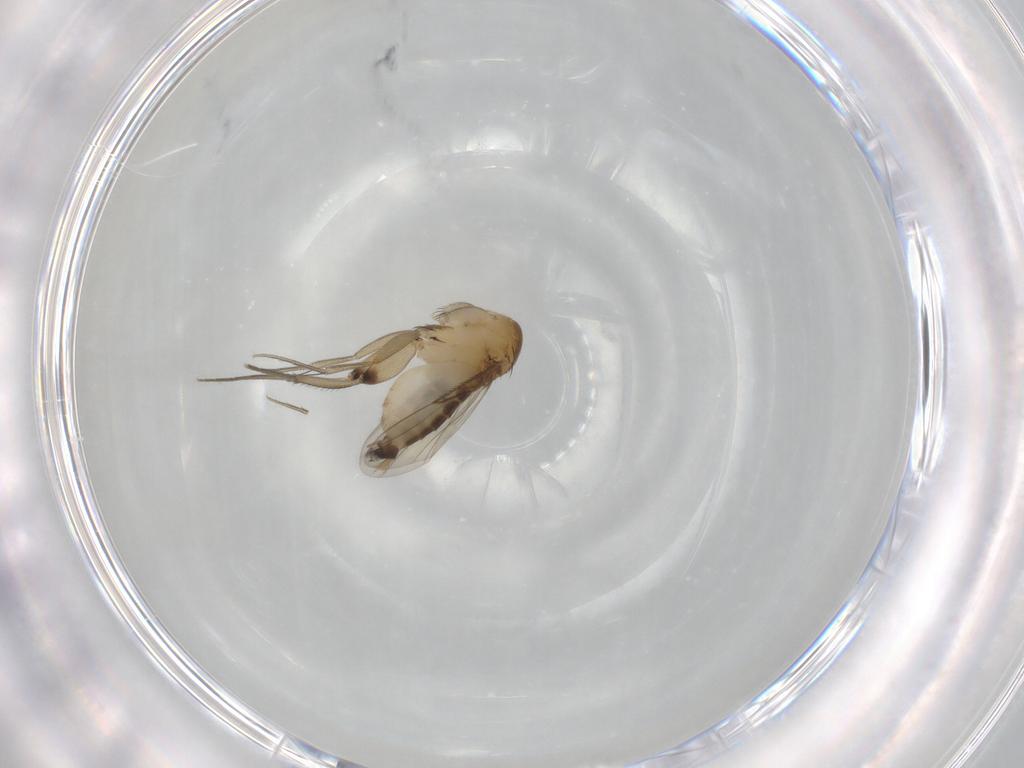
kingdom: Animalia
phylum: Arthropoda
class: Insecta
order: Diptera
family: Phoridae
